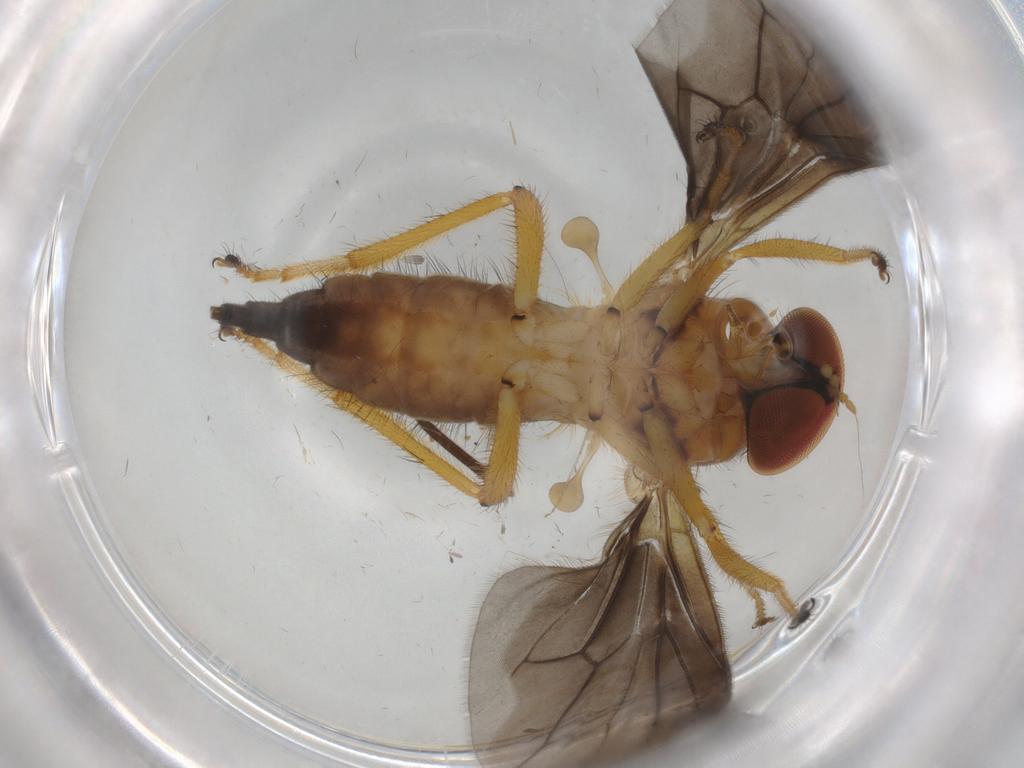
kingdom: Animalia
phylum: Arthropoda
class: Insecta
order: Diptera
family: Hybotidae
